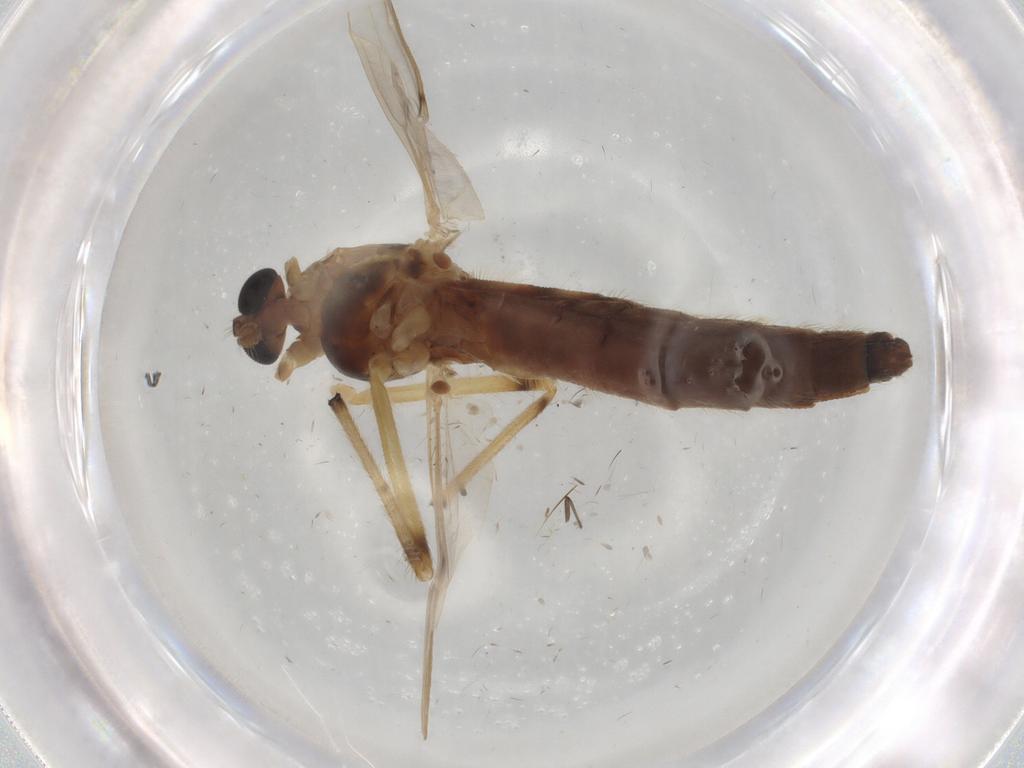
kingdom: Animalia
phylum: Arthropoda
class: Insecta
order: Diptera
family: Chironomidae
